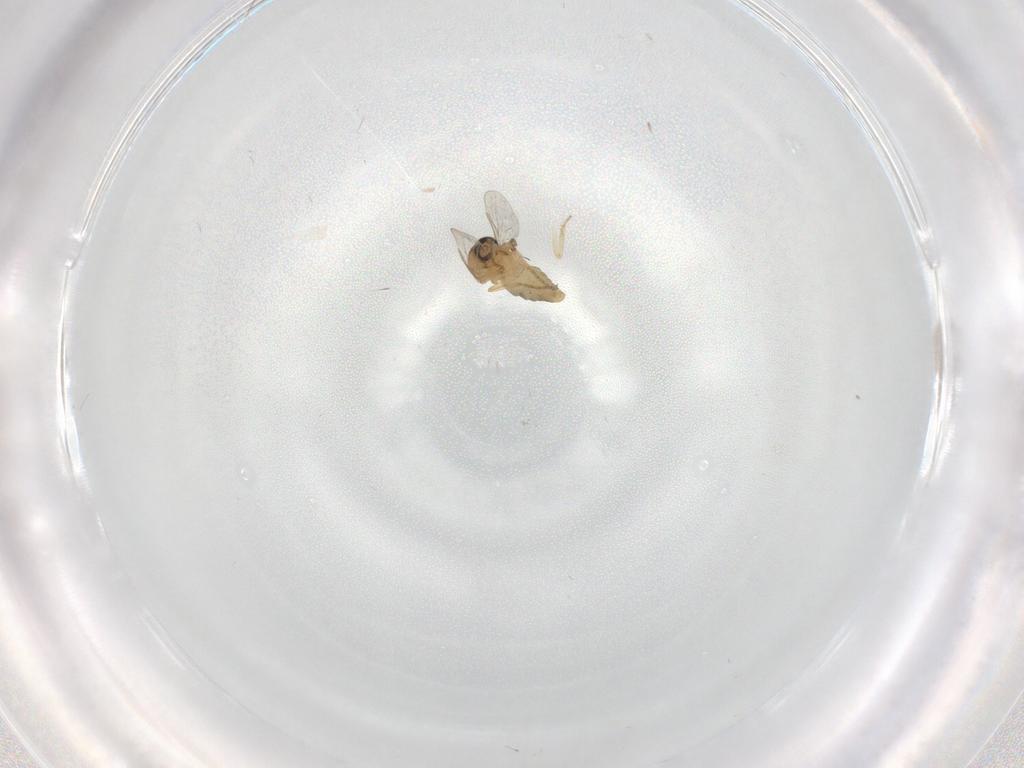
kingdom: Animalia
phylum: Arthropoda
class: Insecta
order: Diptera
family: Ceratopogonidae
